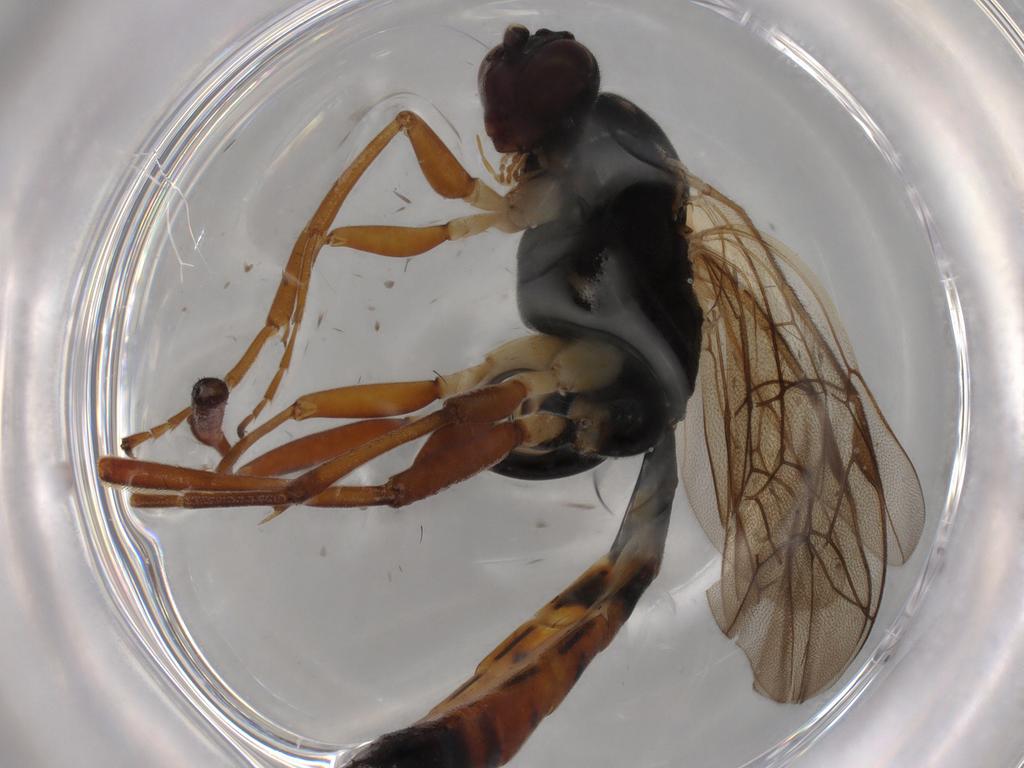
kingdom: Animalia
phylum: Arthropoda
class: Insecta
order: Hymenoptera
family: Ichneumonidae
